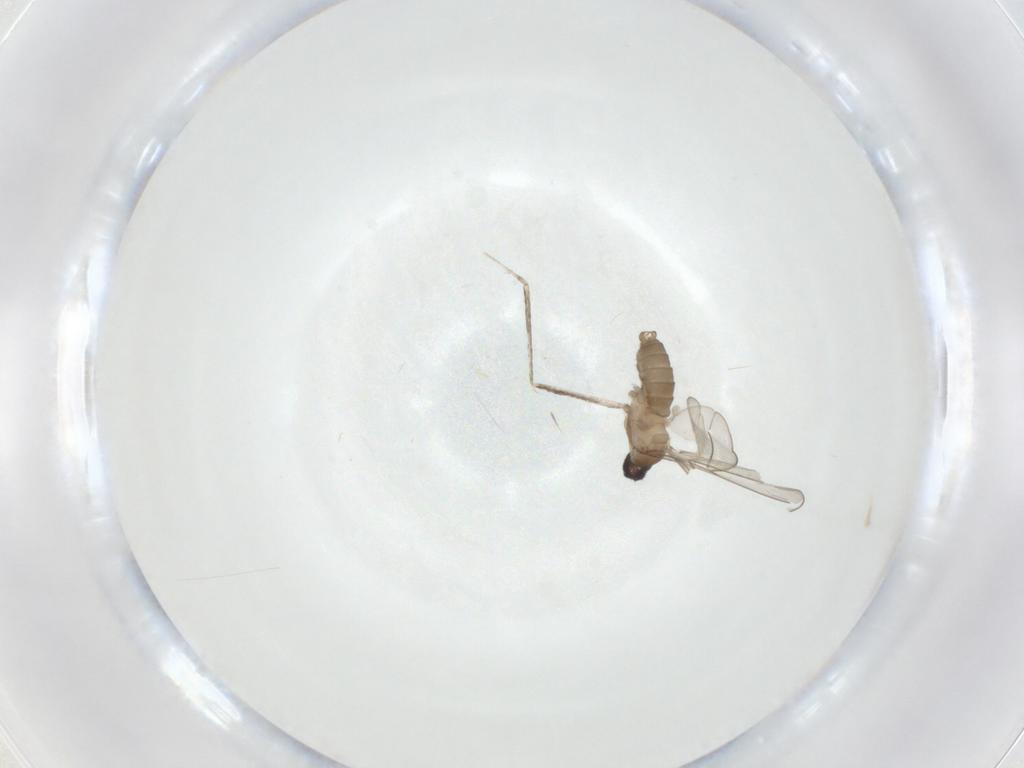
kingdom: Animalia
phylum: Arthropoda
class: Insecta
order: Diptera
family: Cecidomyiidae
